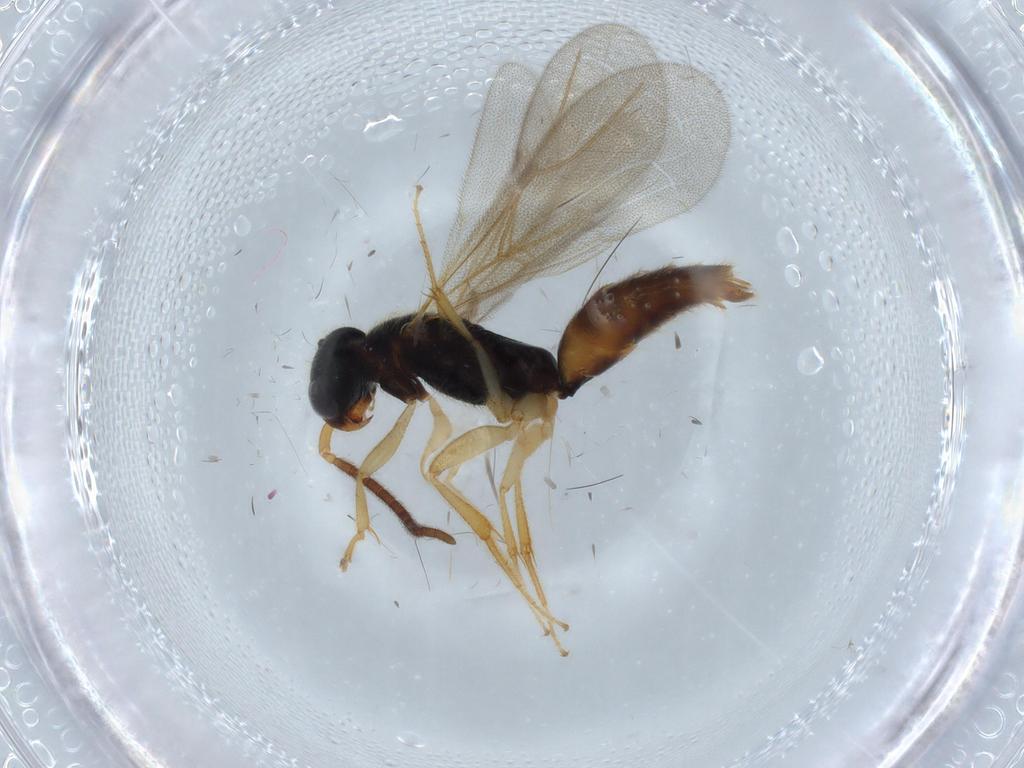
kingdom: Animalia
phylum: Arthropoda
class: Insecta
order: Hymenoptera
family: Bethylidae
